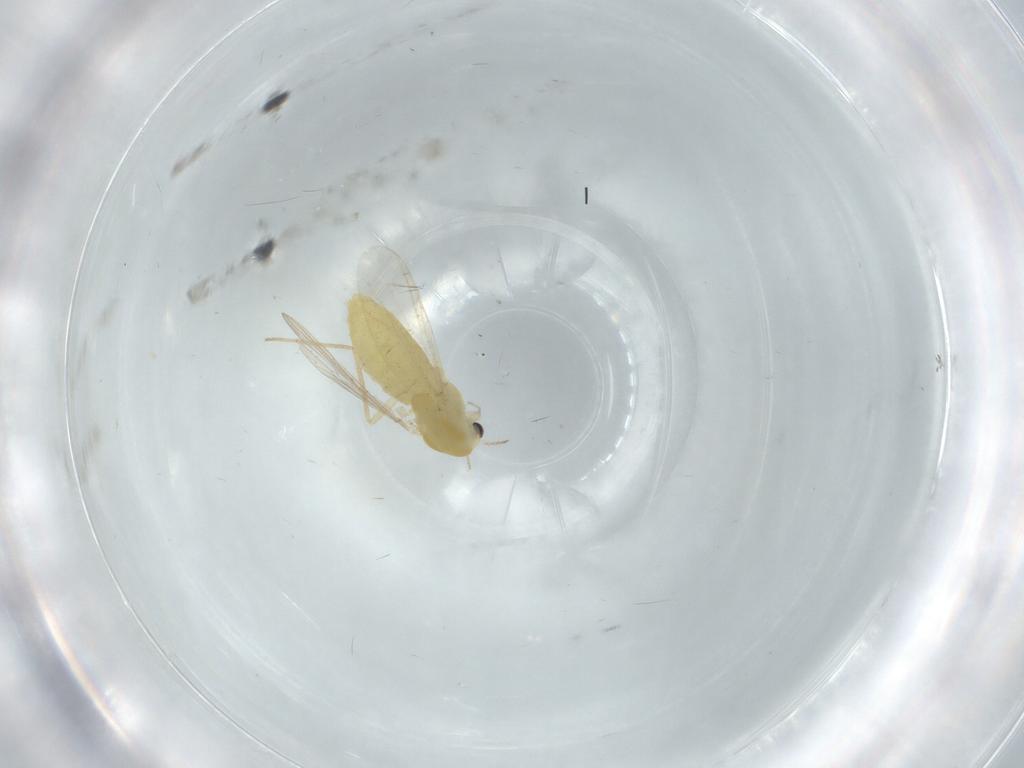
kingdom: Animalia
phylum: Arthropoda
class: Insecta
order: Diptera
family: Chironomidae
